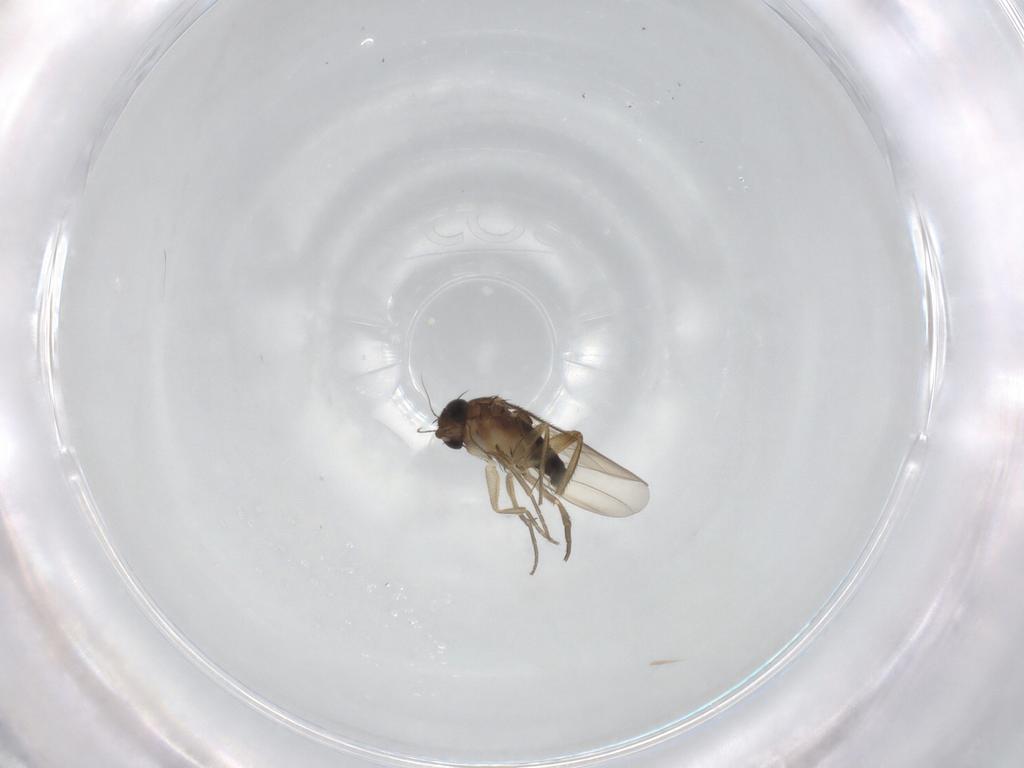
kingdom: Animalia
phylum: Arthropoda
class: Insecta
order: Diptera
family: Phoridae
